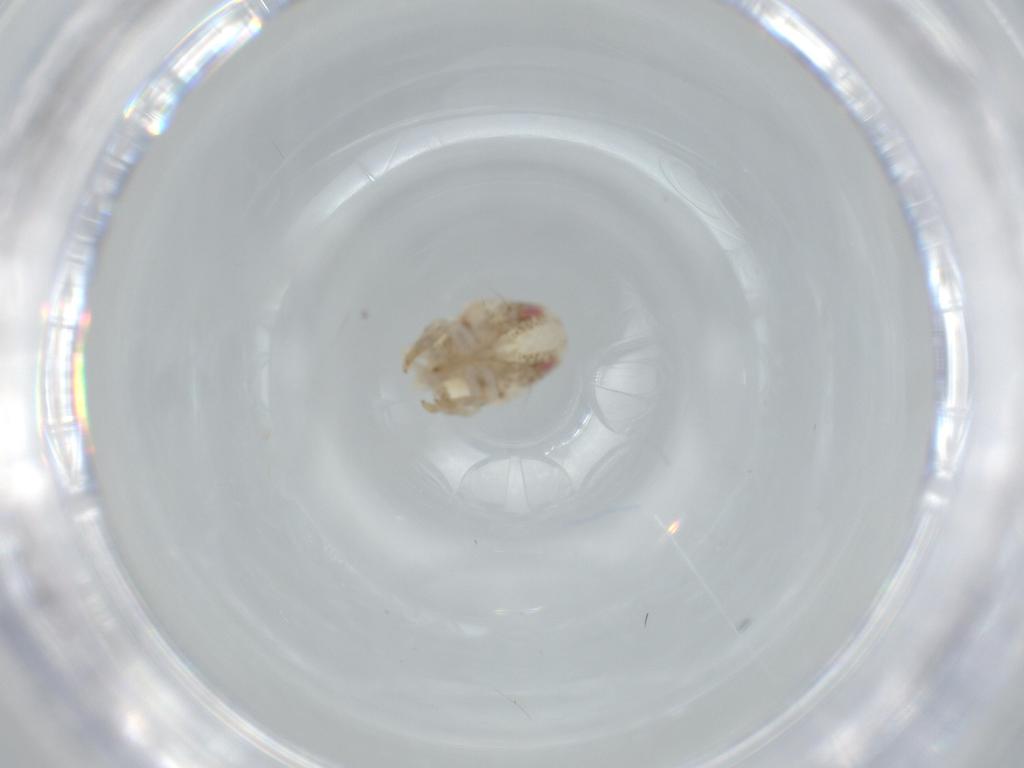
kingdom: Animalia
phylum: Arthropoda
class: Insecta
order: Hemiptera
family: Acanaloniidae
